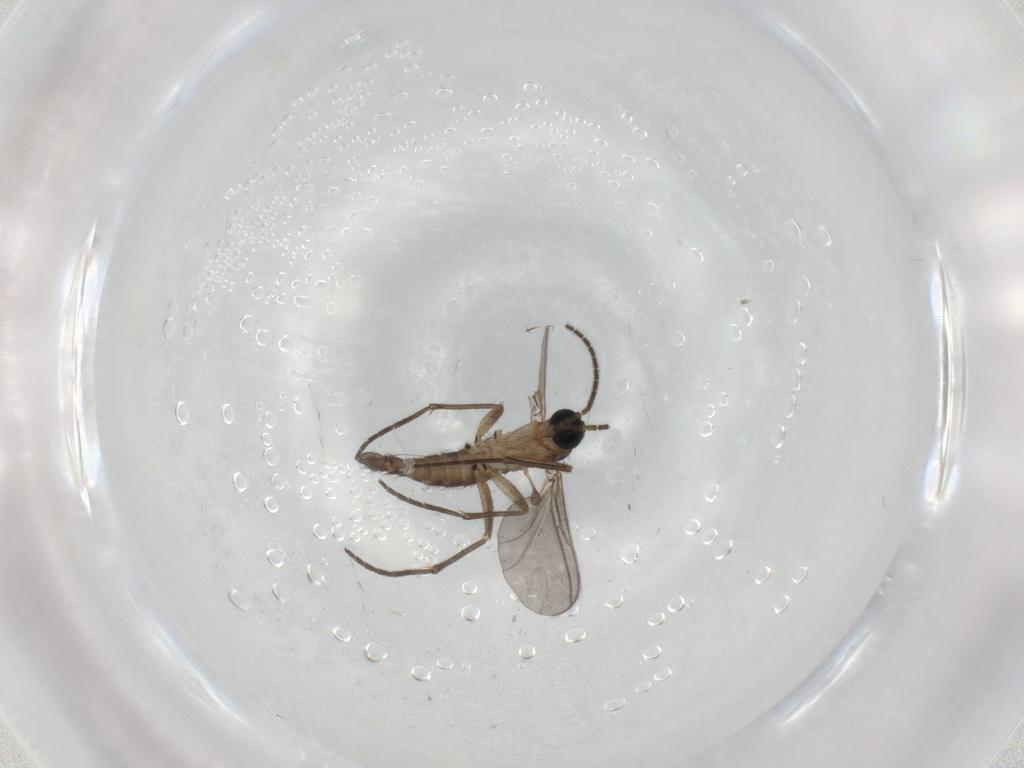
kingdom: Animalia
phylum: Arthropoda
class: Insecta
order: Diptera
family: Sciaridae
